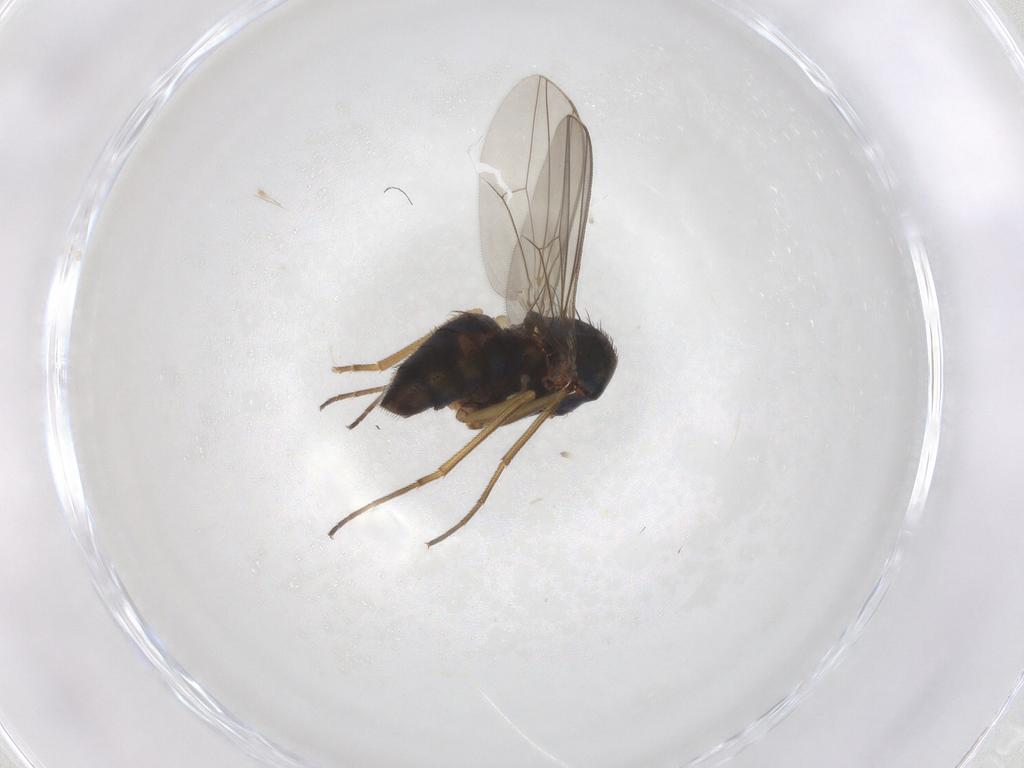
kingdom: Animalia
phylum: Arthropoda
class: Insecta
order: Diptera
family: Dolichopodidae
